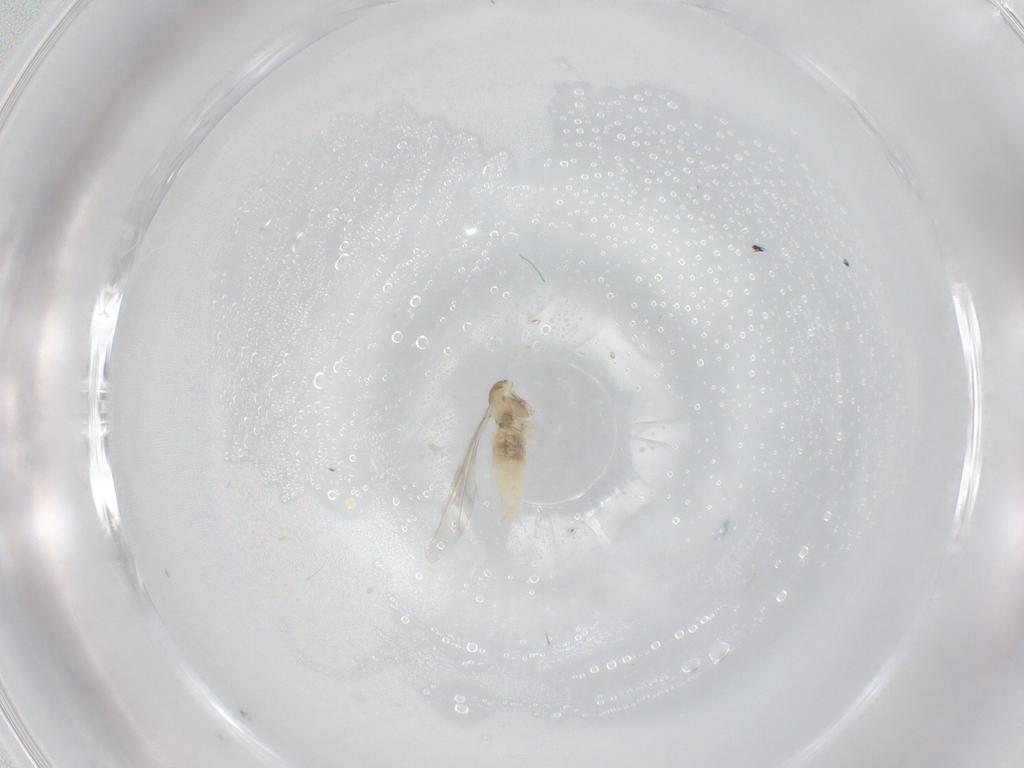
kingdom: Animalia
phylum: Arthropoda
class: Insecta
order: Diptera
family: Cecidomyiidae
